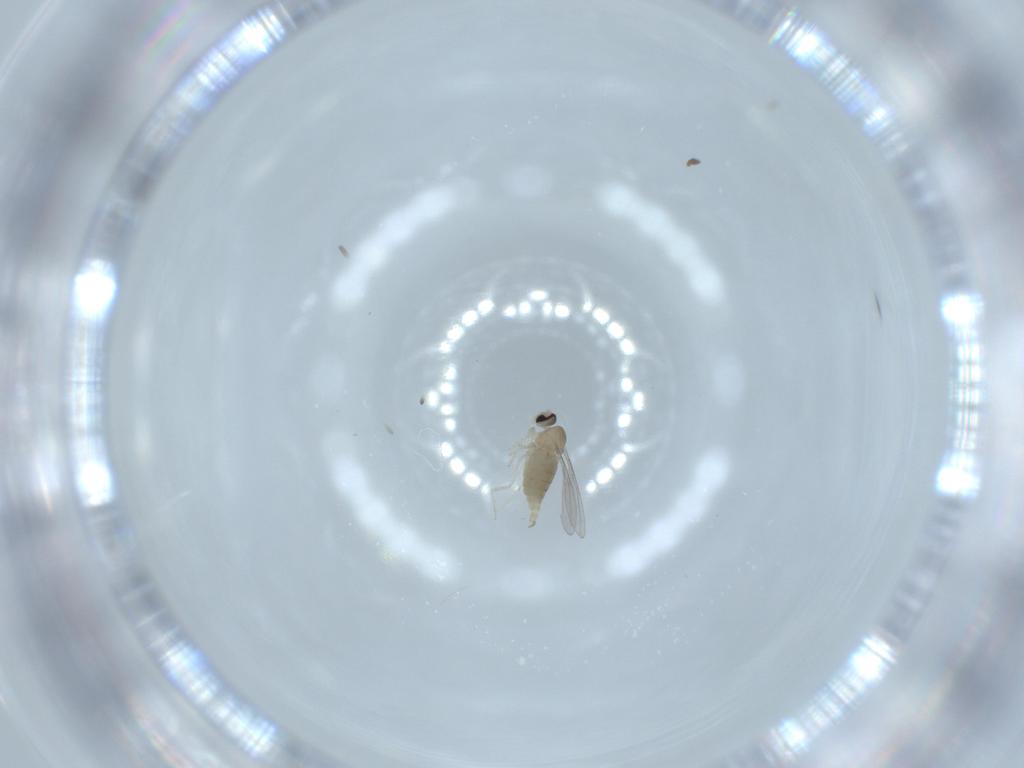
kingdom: Animalia
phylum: Arthropoda
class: Insecta
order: Diptera
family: Cecidomyiidae
